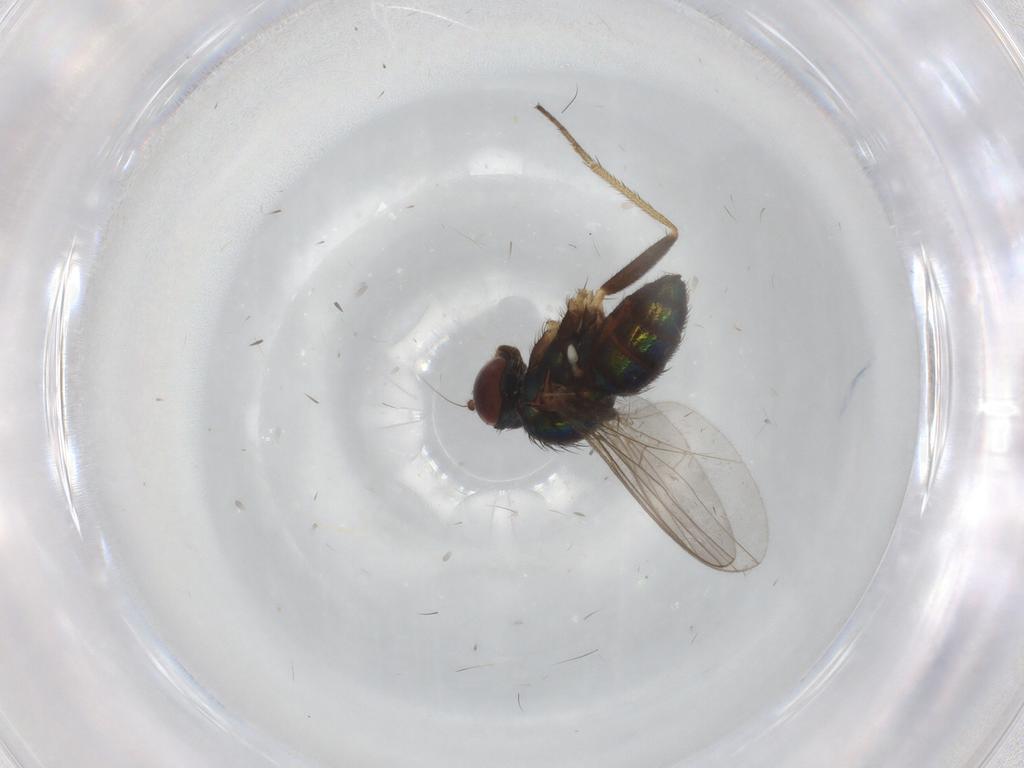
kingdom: Animalia
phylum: Arthropoda
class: Insecta
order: Diptera
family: Dolichopodidae
